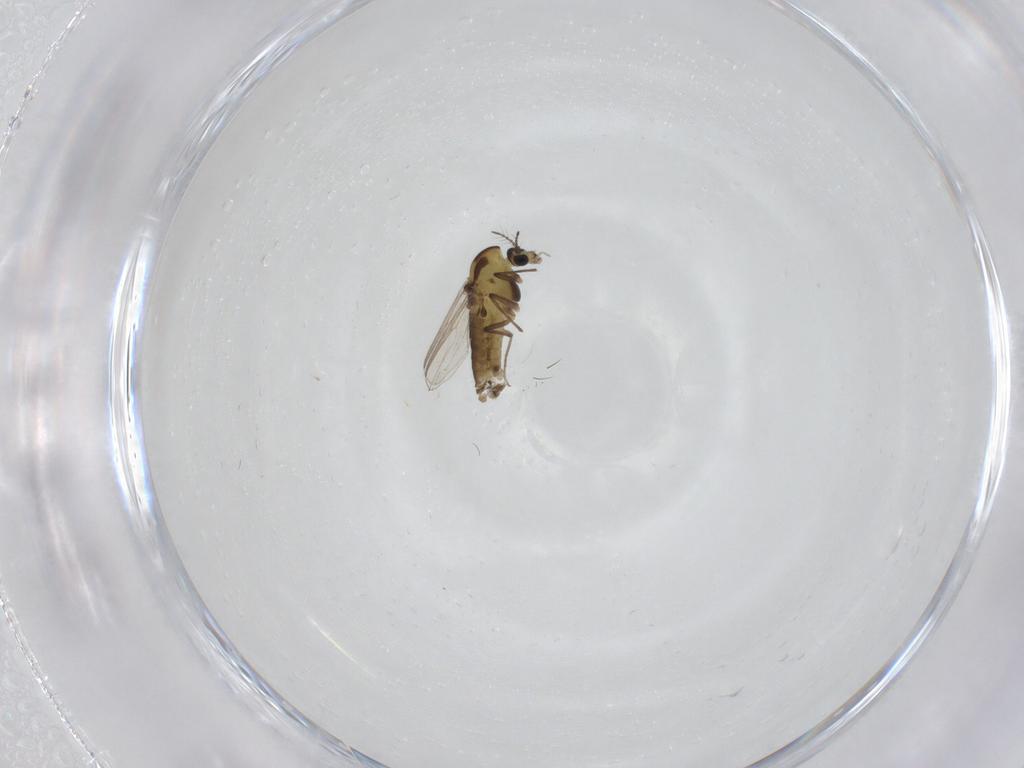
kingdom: Animalia
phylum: Arthropoda
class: Insecta
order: Diptera
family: Chironomidae
